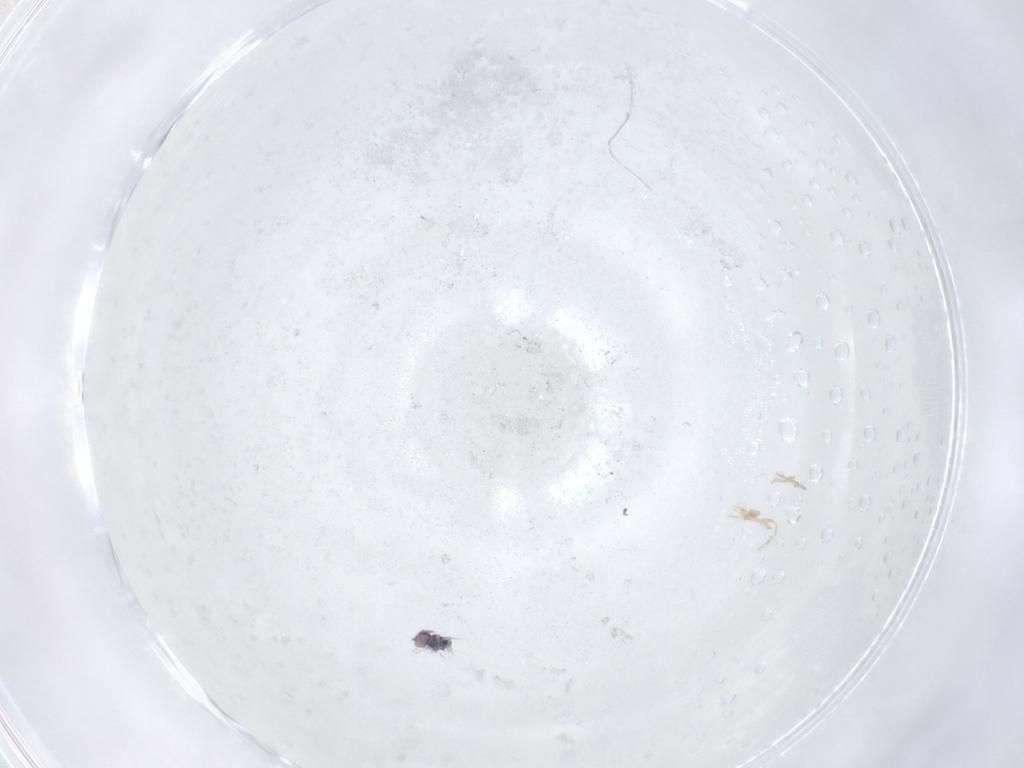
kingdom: Animalia
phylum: Arthropoda
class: Collembola
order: Symphypleona
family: Bourletiellidae
